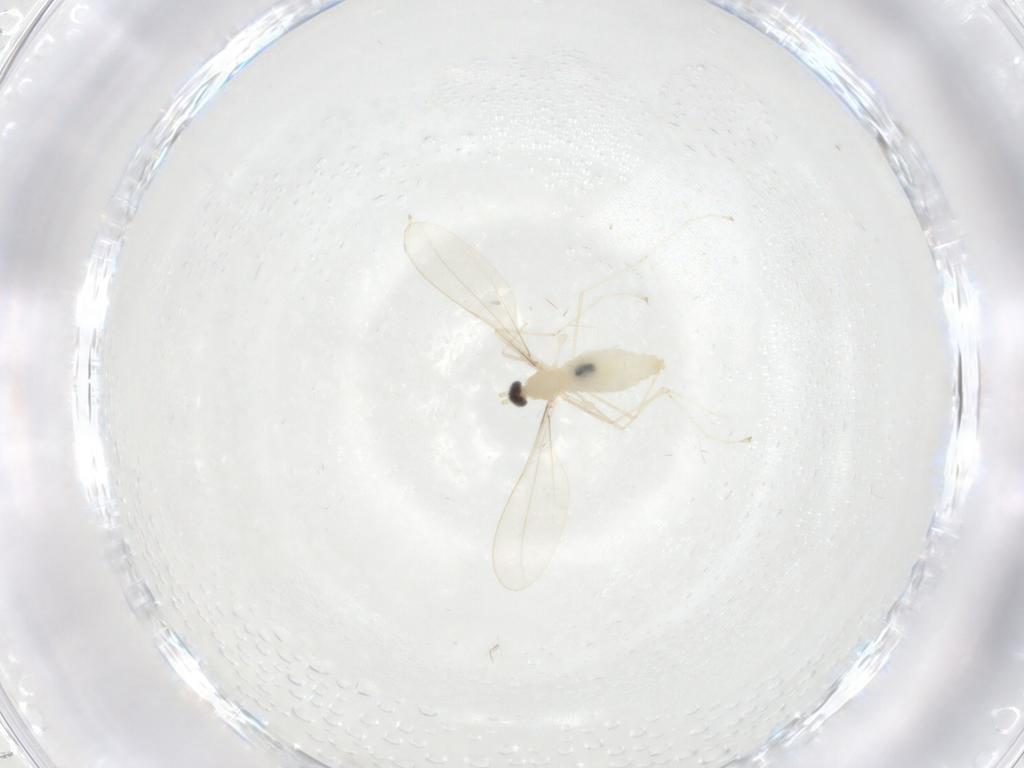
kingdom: Animalia
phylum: Arthropoda
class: Insecta
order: Diptera
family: Cecidomyiidae
